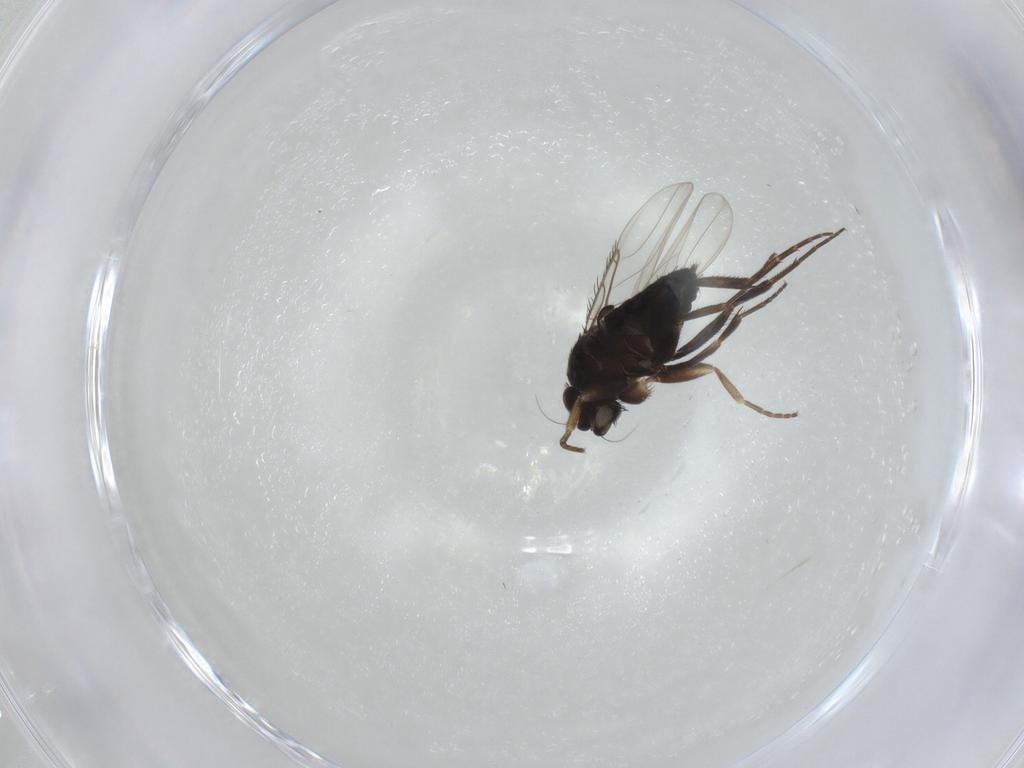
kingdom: Animalia
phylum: Arthropoda
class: Insecta
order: Diptera
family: Phoridae
